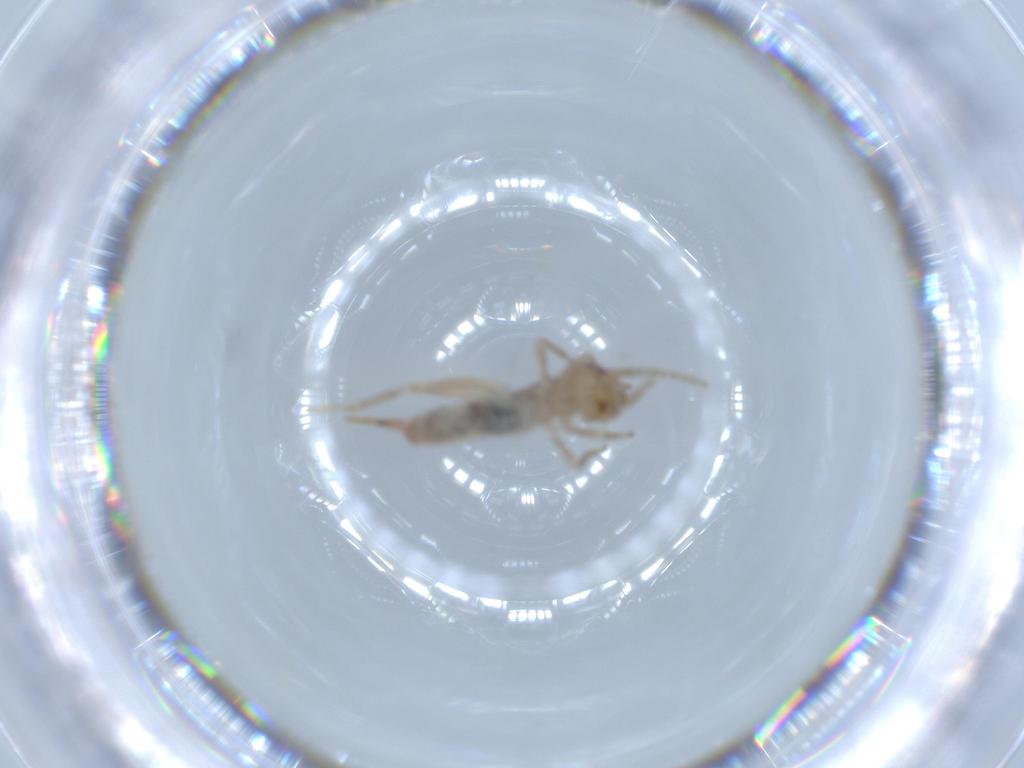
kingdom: Animalia
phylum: Arthropoda
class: Insecta
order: Orthoptera
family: Mogoplistidae
